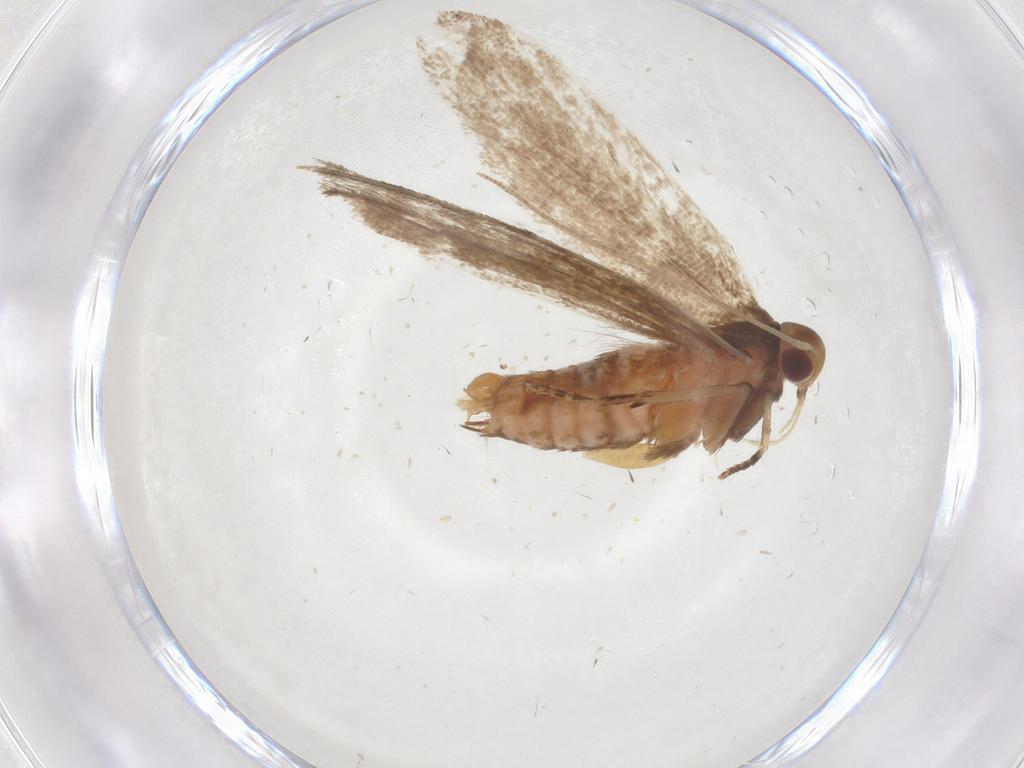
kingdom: Animalia
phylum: Arthropoda
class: Insecta
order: Lepidoptera
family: Gelechiidae
